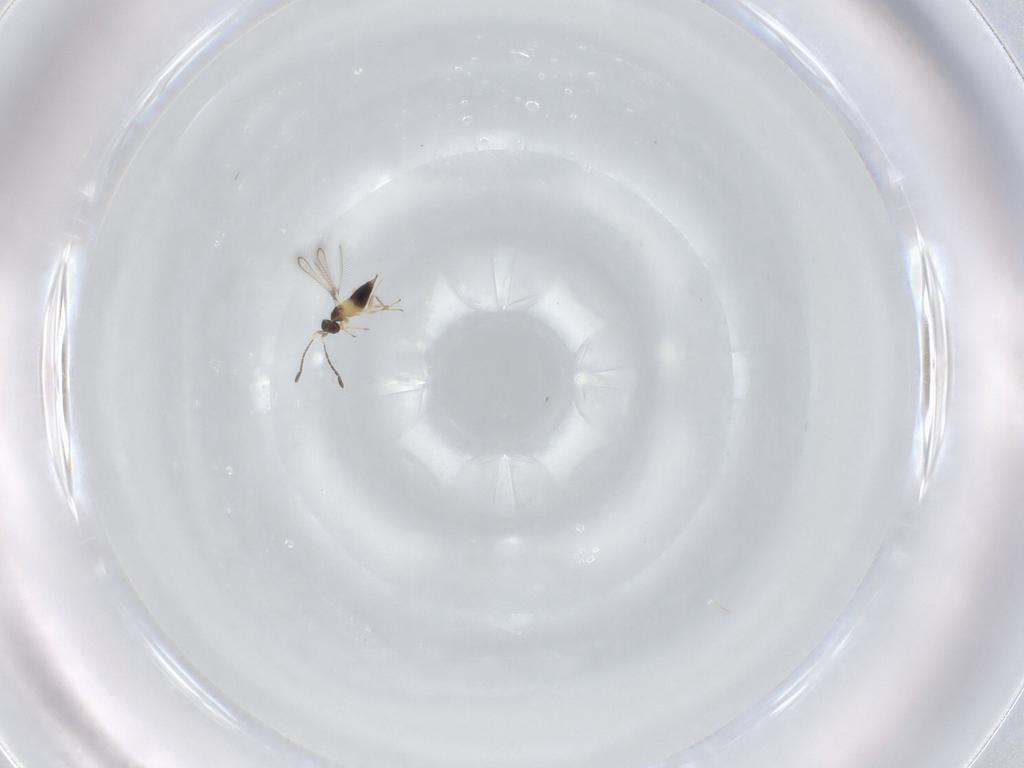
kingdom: Animalia
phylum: Arthropoda
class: Insecta
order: Hymenoptera
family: Mymaridae
